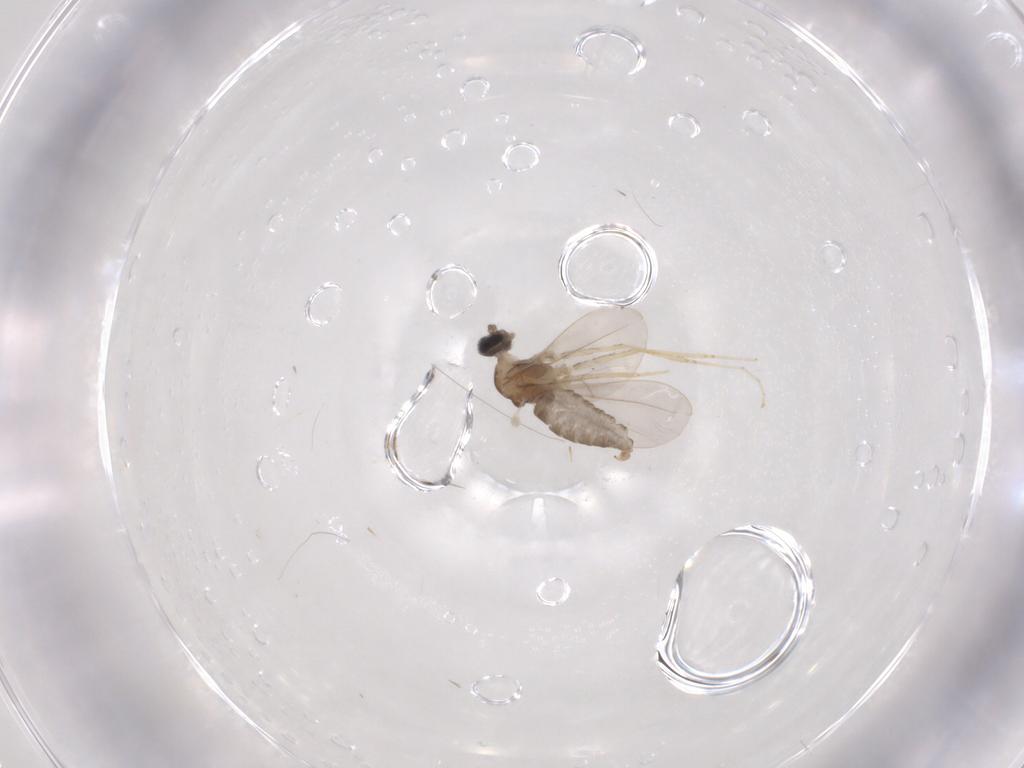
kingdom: Animalia
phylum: Arthropoda
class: Insecta
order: Diptera
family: Cecidomyiidae
